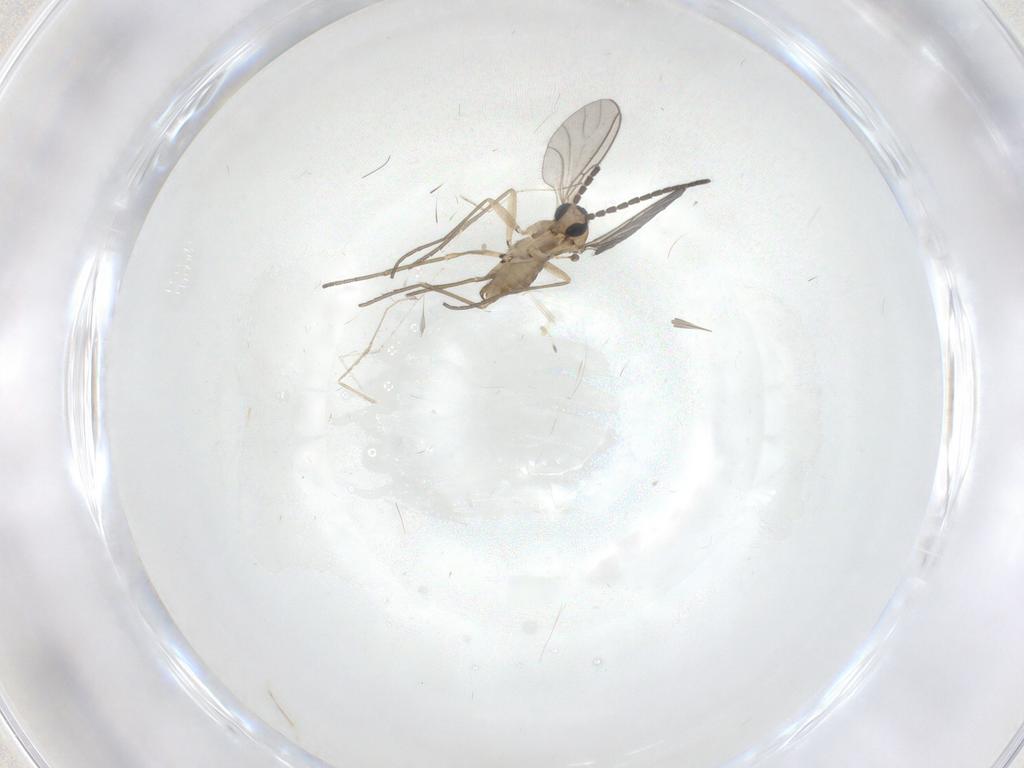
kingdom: Animalia
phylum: Arthropoda
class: Insecta
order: Diptera
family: Sciaridae
